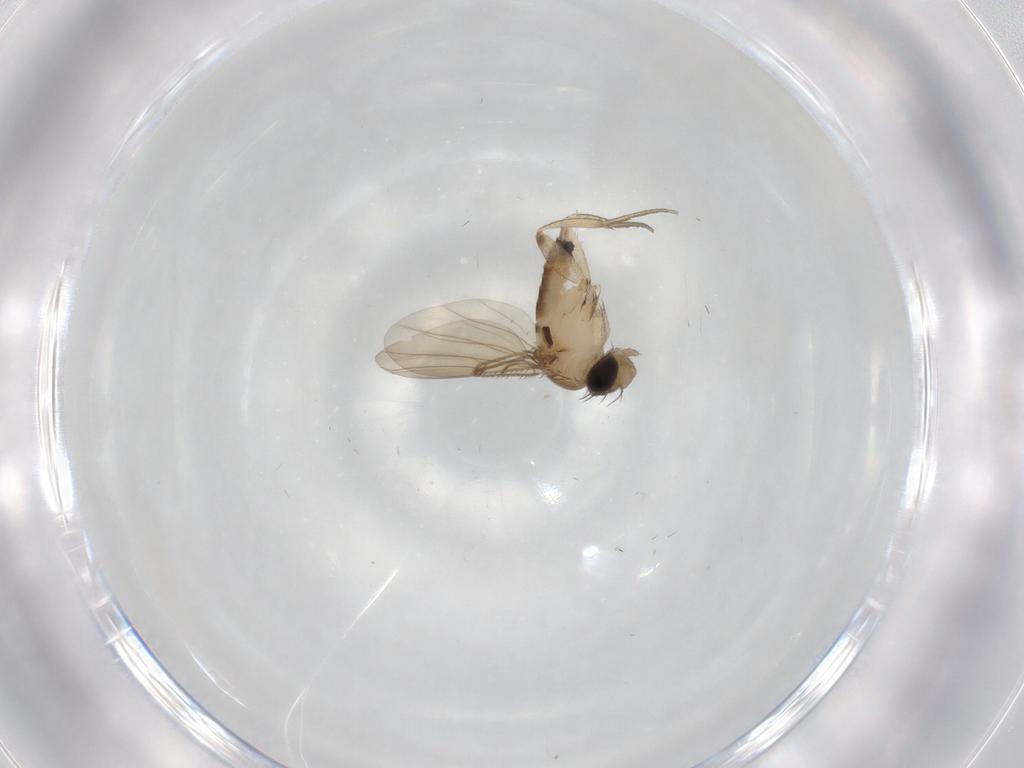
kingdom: Animalia
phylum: Arthropoda
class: Insecta
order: Diptera
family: Phoridae
